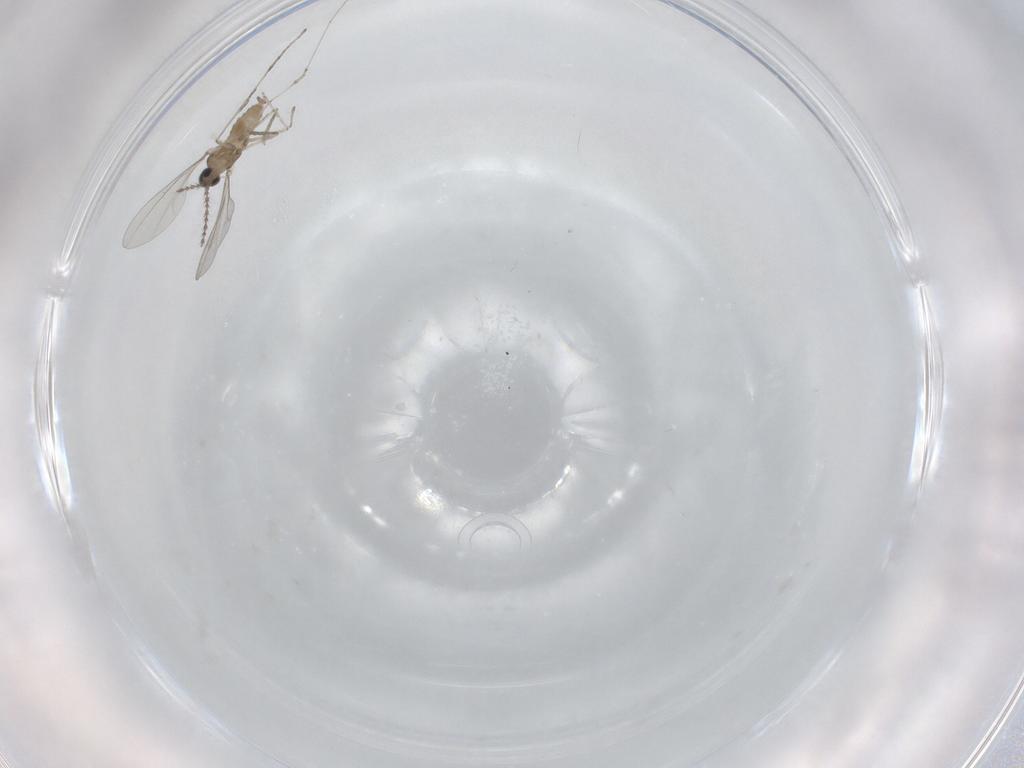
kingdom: Animalia
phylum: Arthropoda
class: Insecta
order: Diptera
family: Cecidomyiidae
